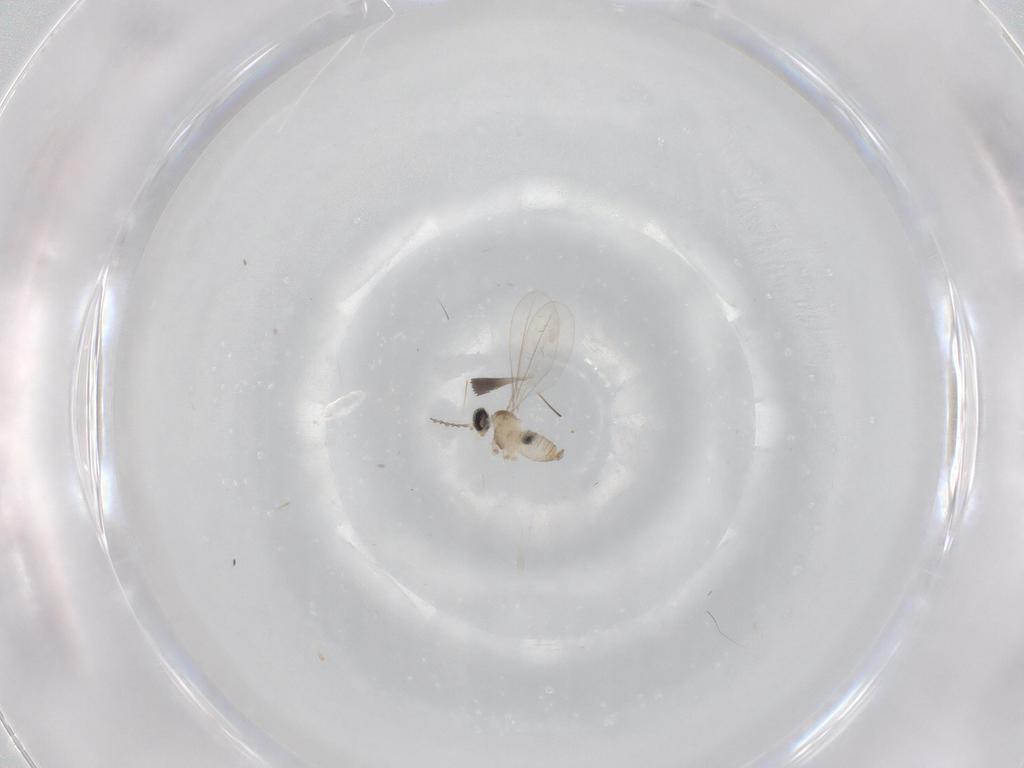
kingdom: Animalia
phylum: Arthropoda
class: Insecta
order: Diptera
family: Cecidomyiidae
